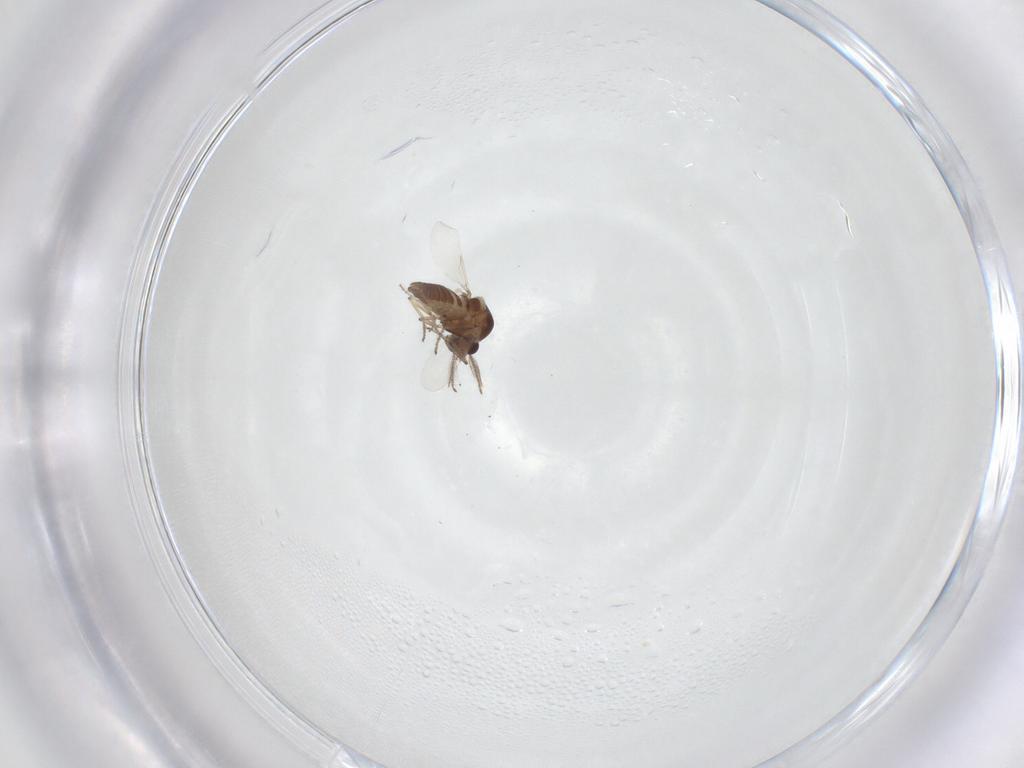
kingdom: Animalia
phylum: Arthropoda
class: Insecta
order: Diptera
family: Ceratopogonidae
